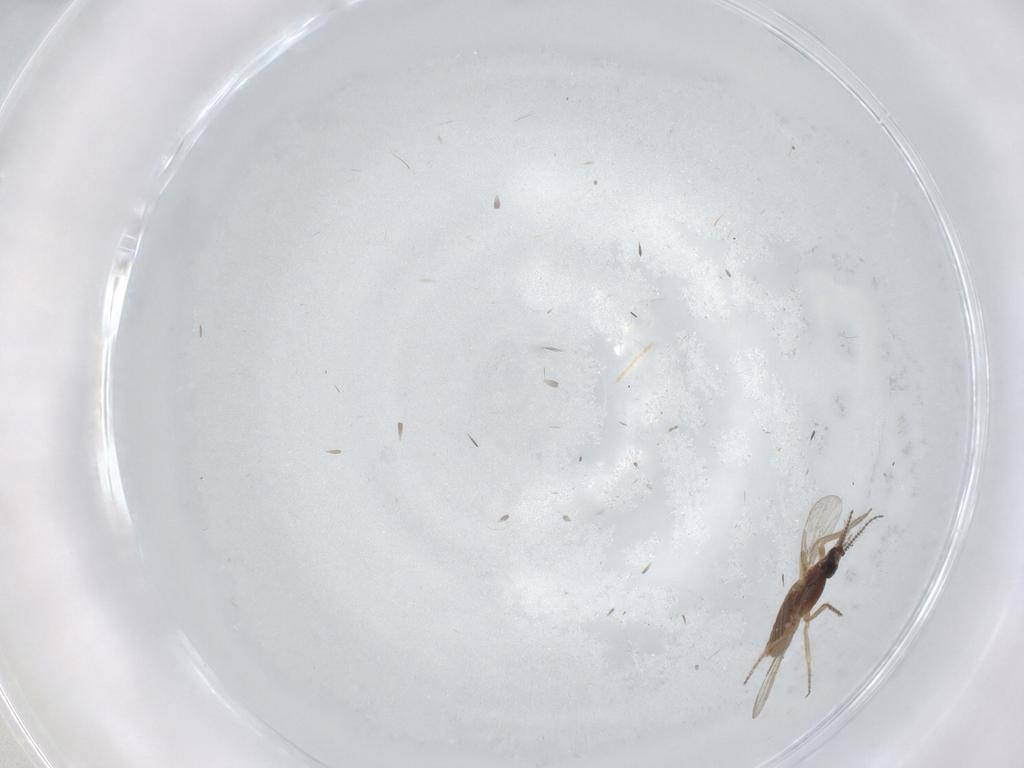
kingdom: Animalia
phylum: Arthropoda
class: Insecta
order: Diptera
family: Ceratopogonidae
